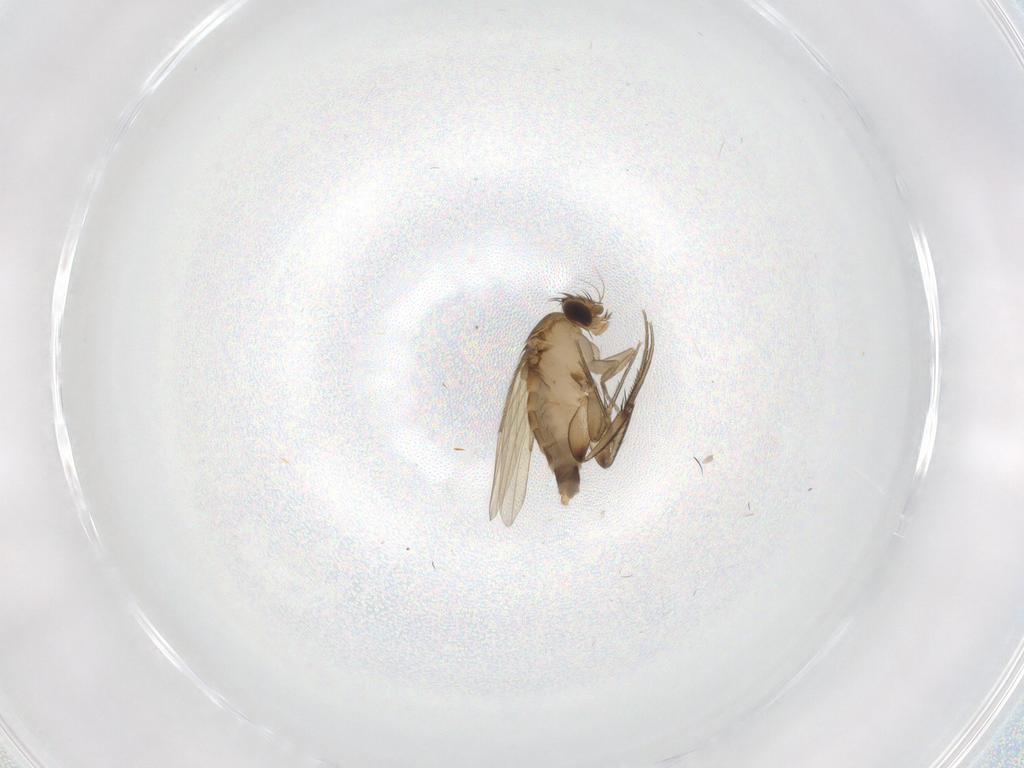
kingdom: Animalia
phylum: Arthropoda
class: Insecta
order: Diptera
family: Phoridae
